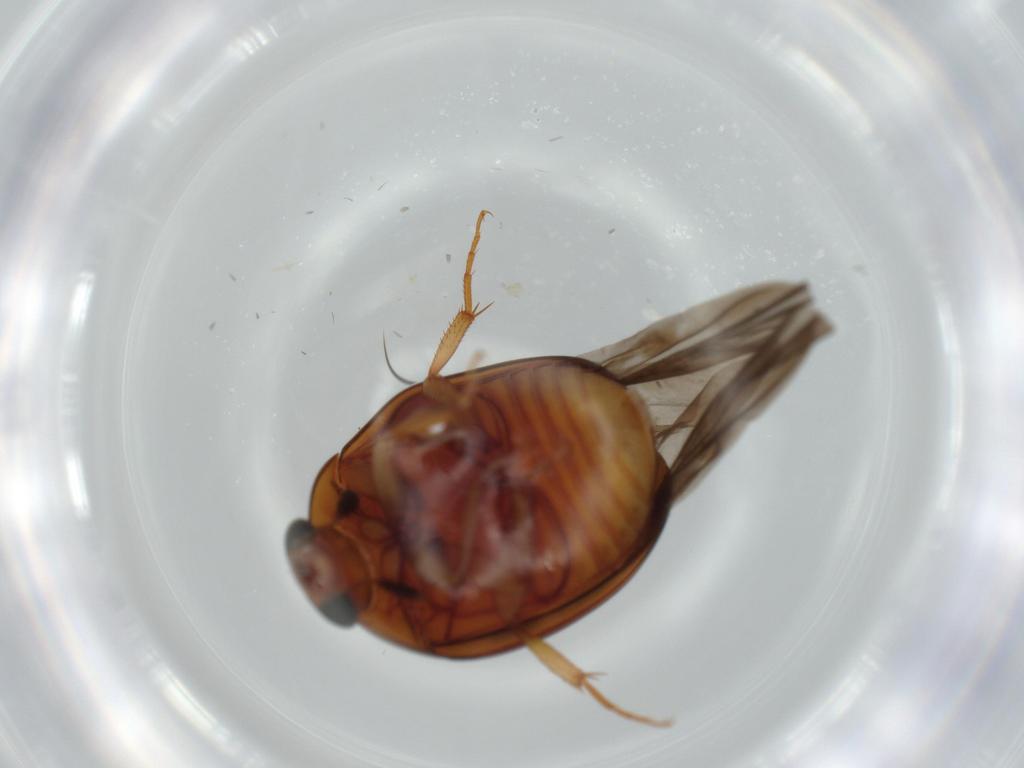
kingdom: Animalia
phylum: Arthropoda
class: Insecta
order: Coleoptera
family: Nitidulidae
